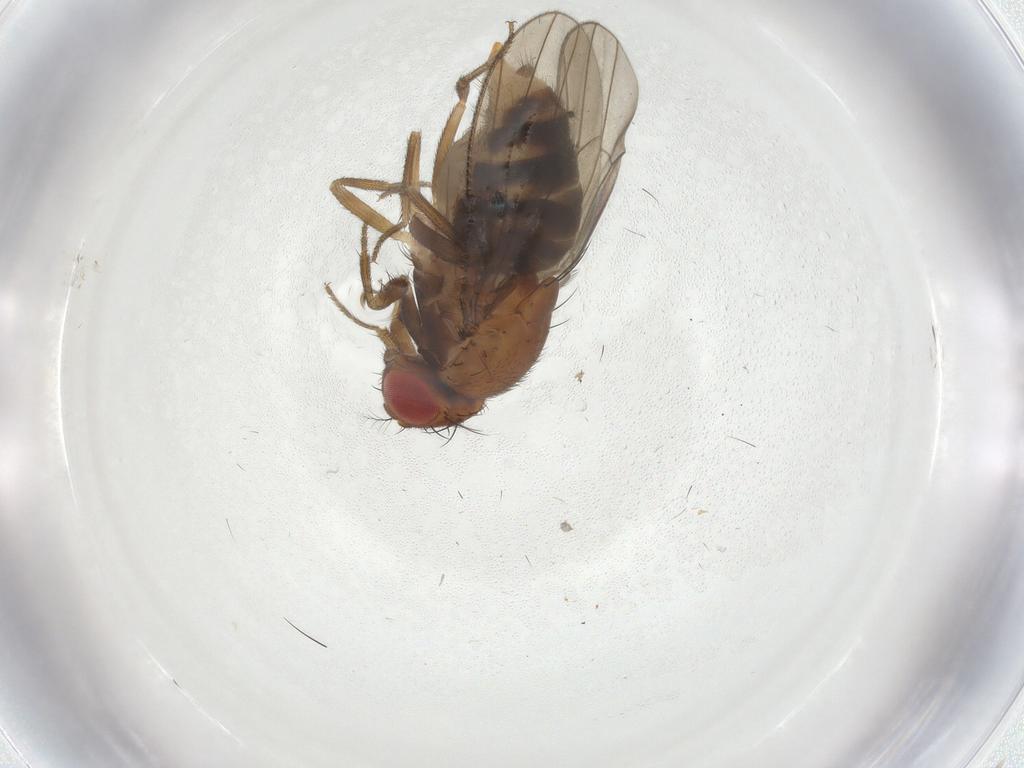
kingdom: Animalia
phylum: Arthropoda
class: Insecta
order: Diptera
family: Drosophilidae
